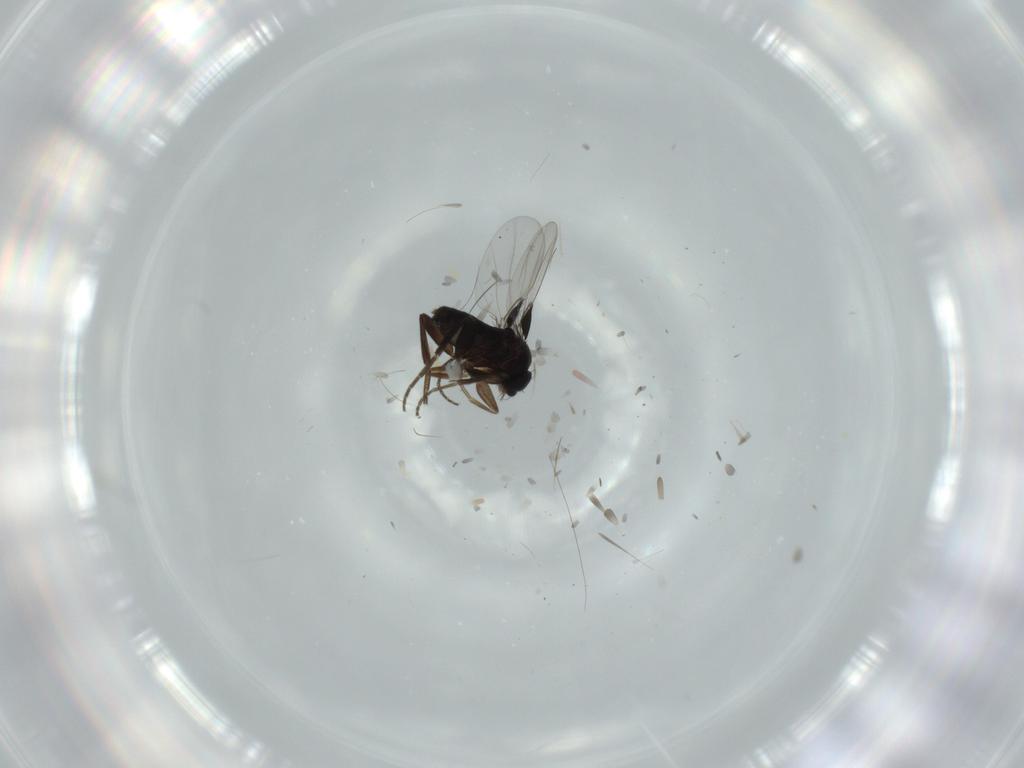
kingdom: Animalia
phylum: Arthropoda
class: Insecta
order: Diptera
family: Phoridae
